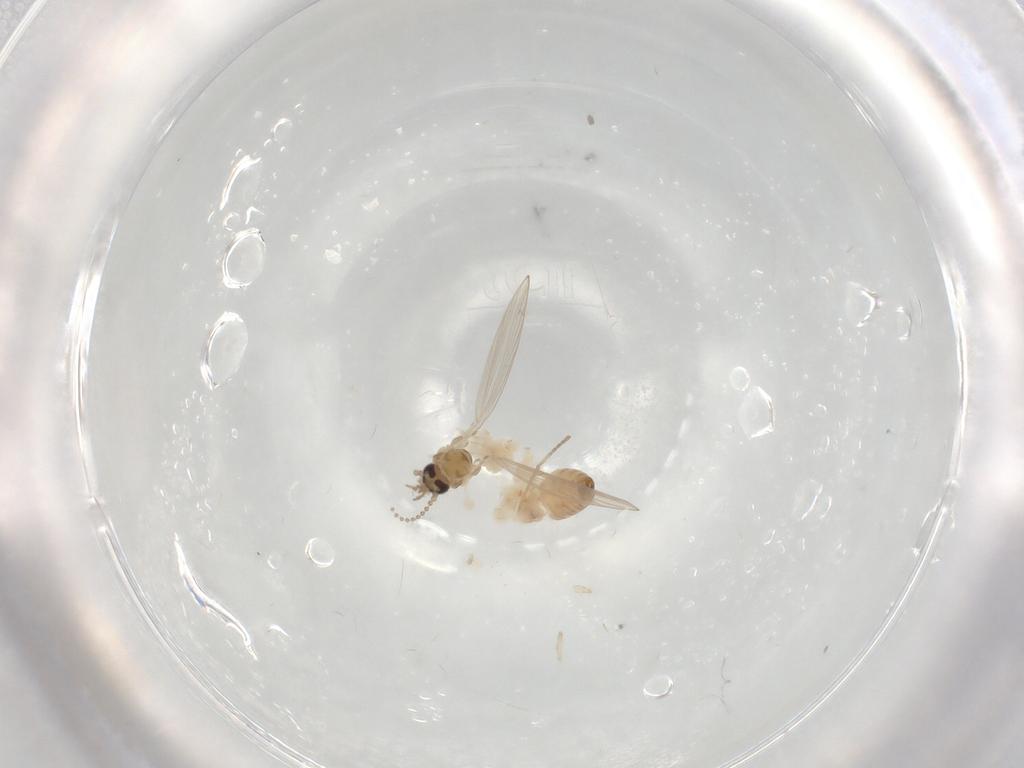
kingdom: Animalia
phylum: Arthropoda
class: Insecta
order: Diptera
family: Psychodidae
